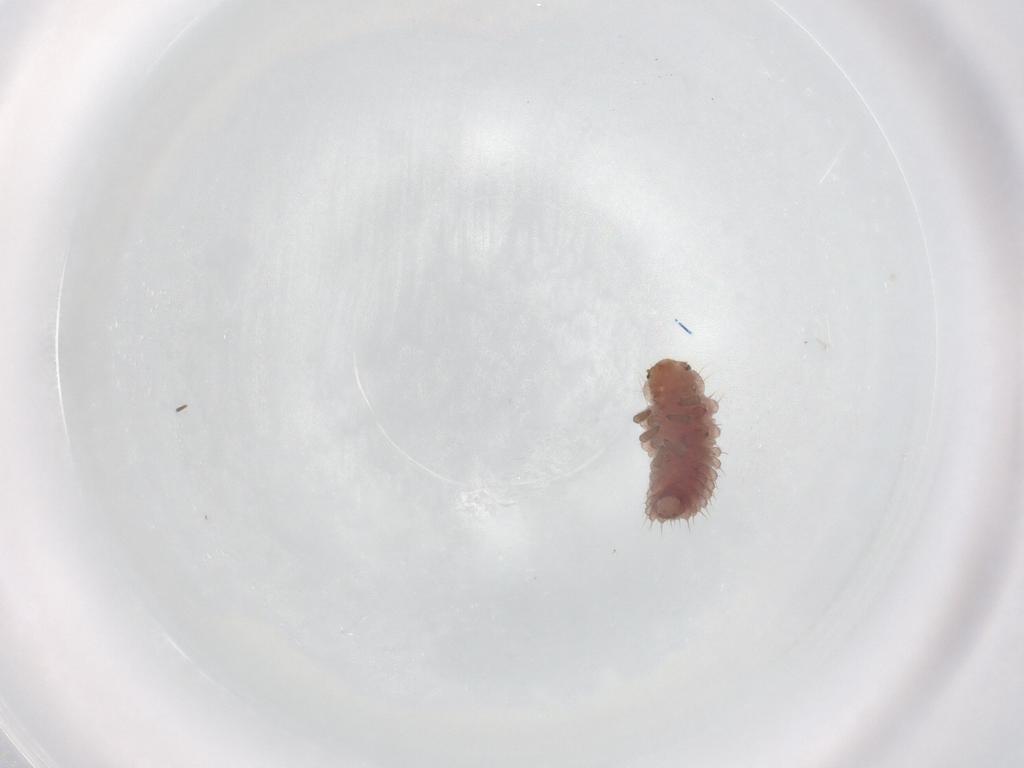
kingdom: Animalia
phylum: Arthropoda
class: Insecta
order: Coleoptera
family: Coccinellidae
